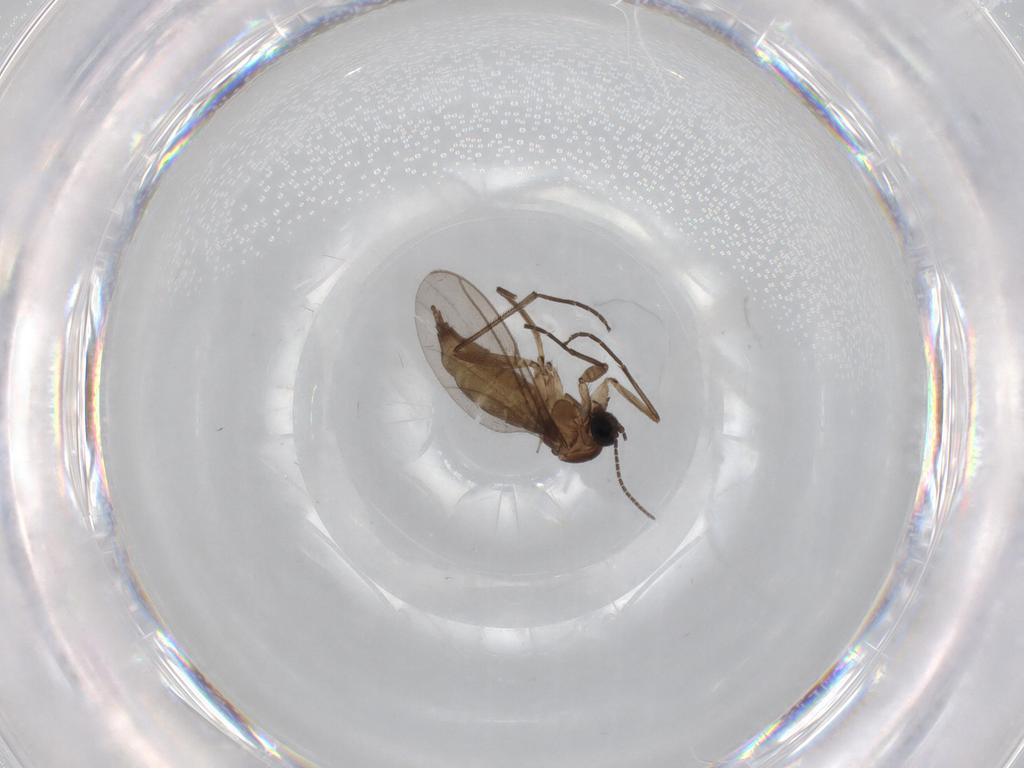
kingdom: Animalia
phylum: Arthropoda
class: Insecta
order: Diptera
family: Sciaridae
